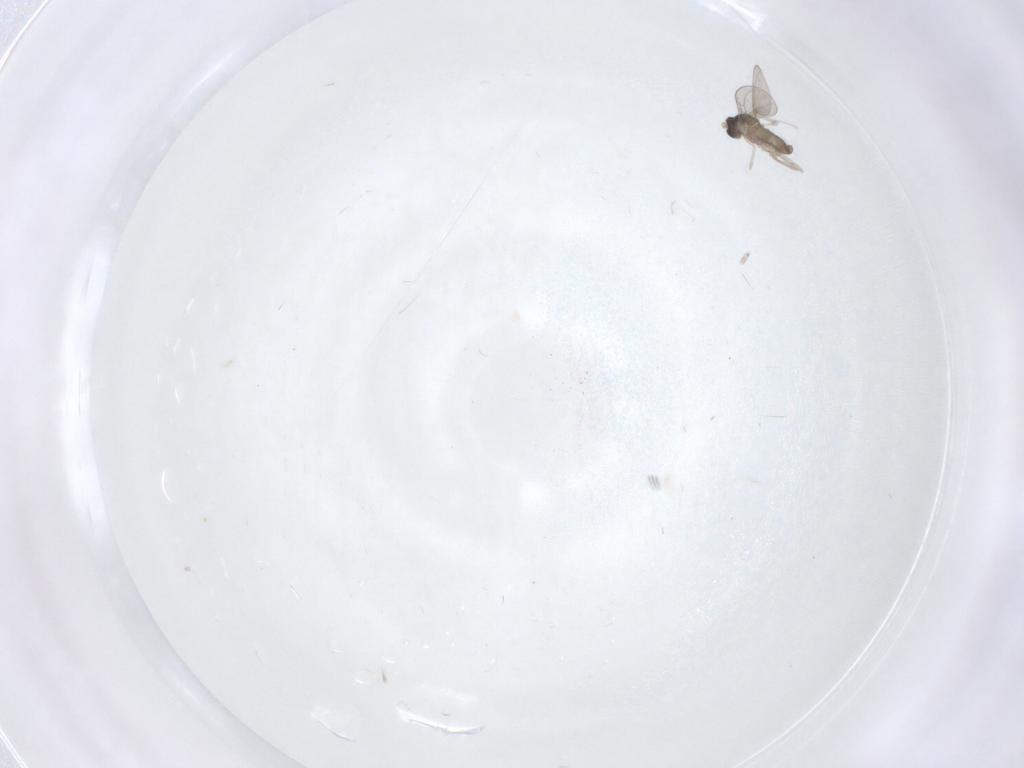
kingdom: Animalia
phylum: Arthropoda
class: Insecta
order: Diptera
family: Cecidomyiidae
